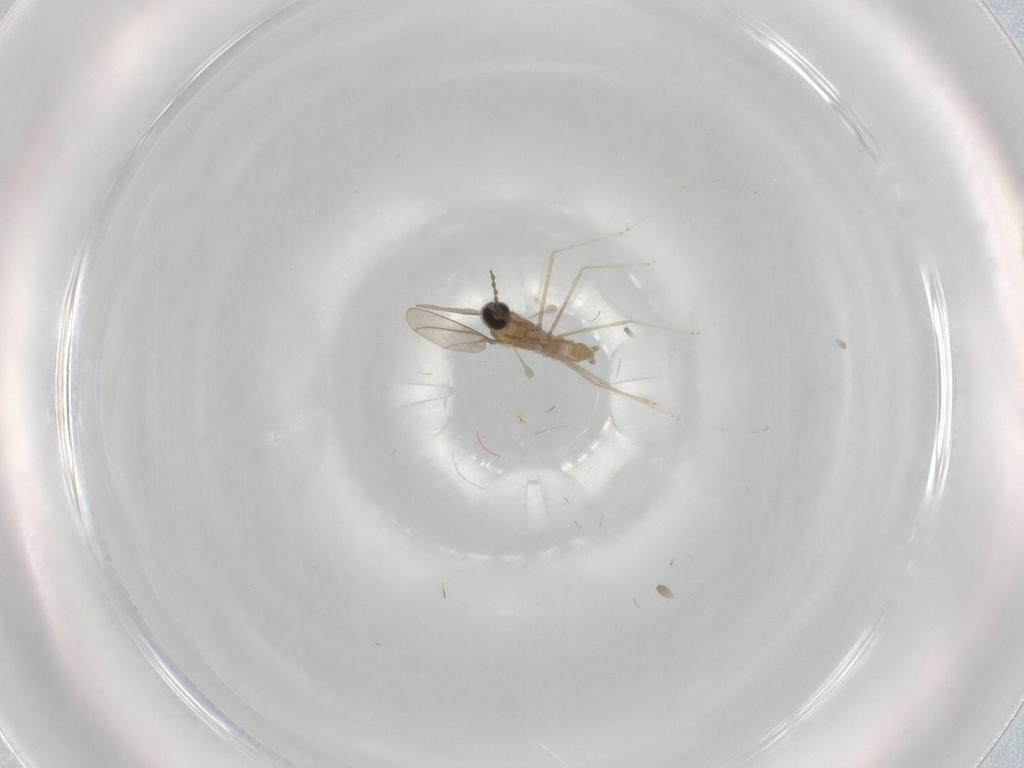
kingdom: Animalia
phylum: Arthropoda
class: Insecta
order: Diptera
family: Cecidomyiidae
